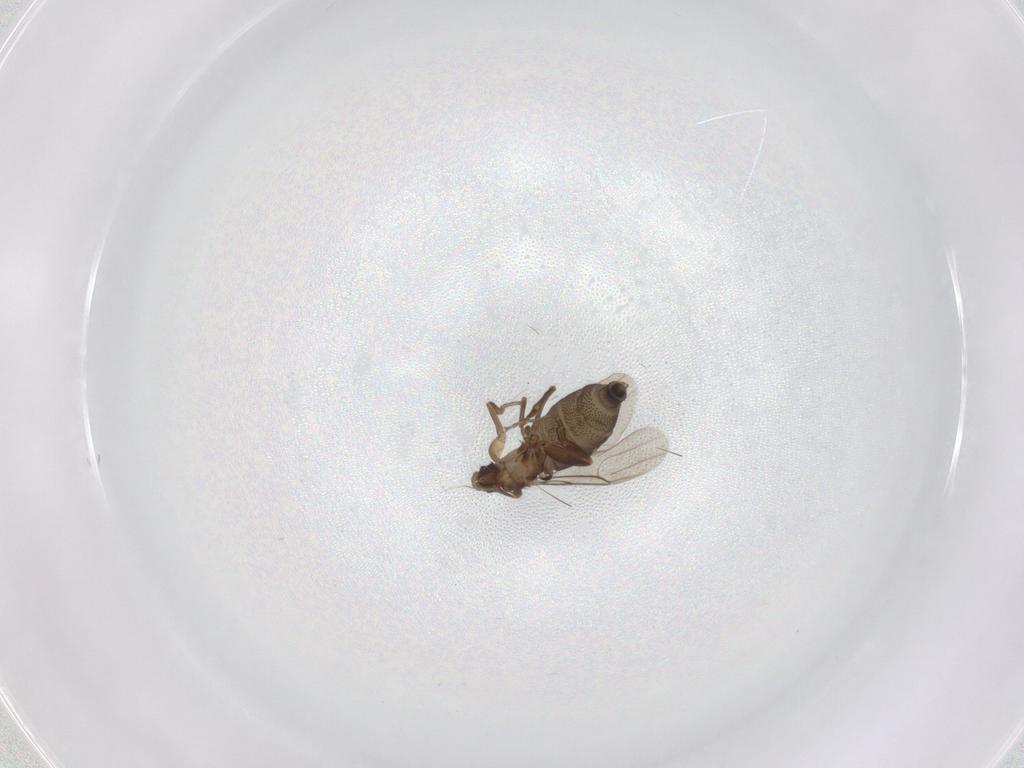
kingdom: Animalia
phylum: Arthropoda
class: Insecta
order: Diptera
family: Phoridae
